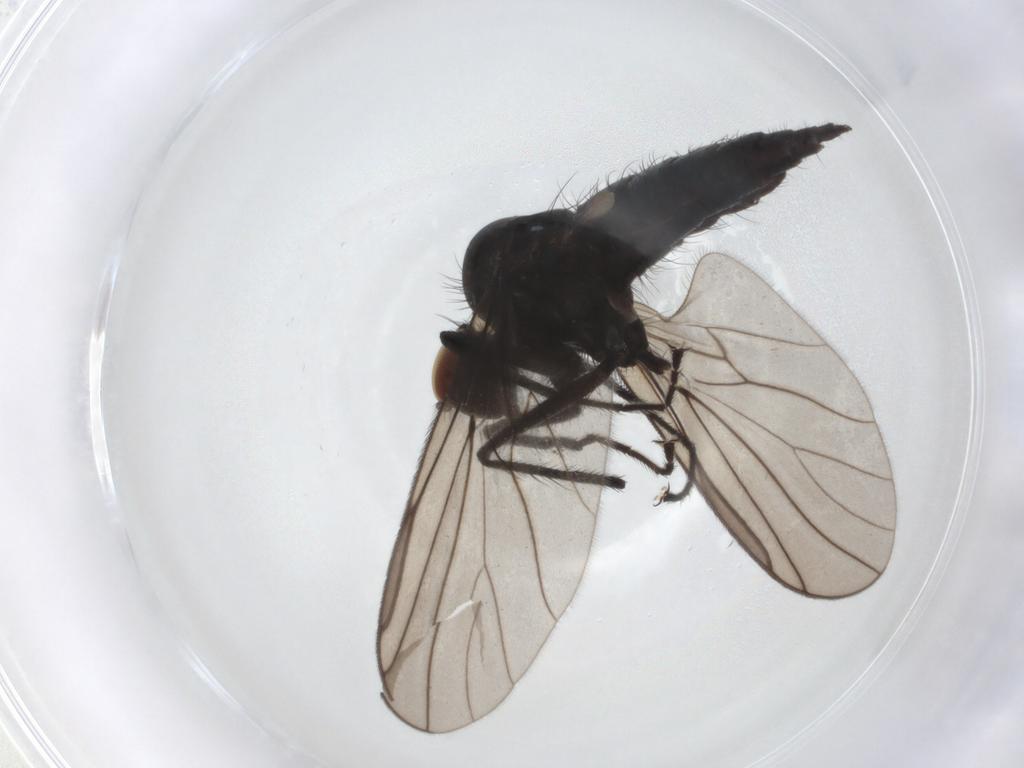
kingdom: Animalia
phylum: Arthropoda
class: Insecta
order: Diptera
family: Hybotidae
